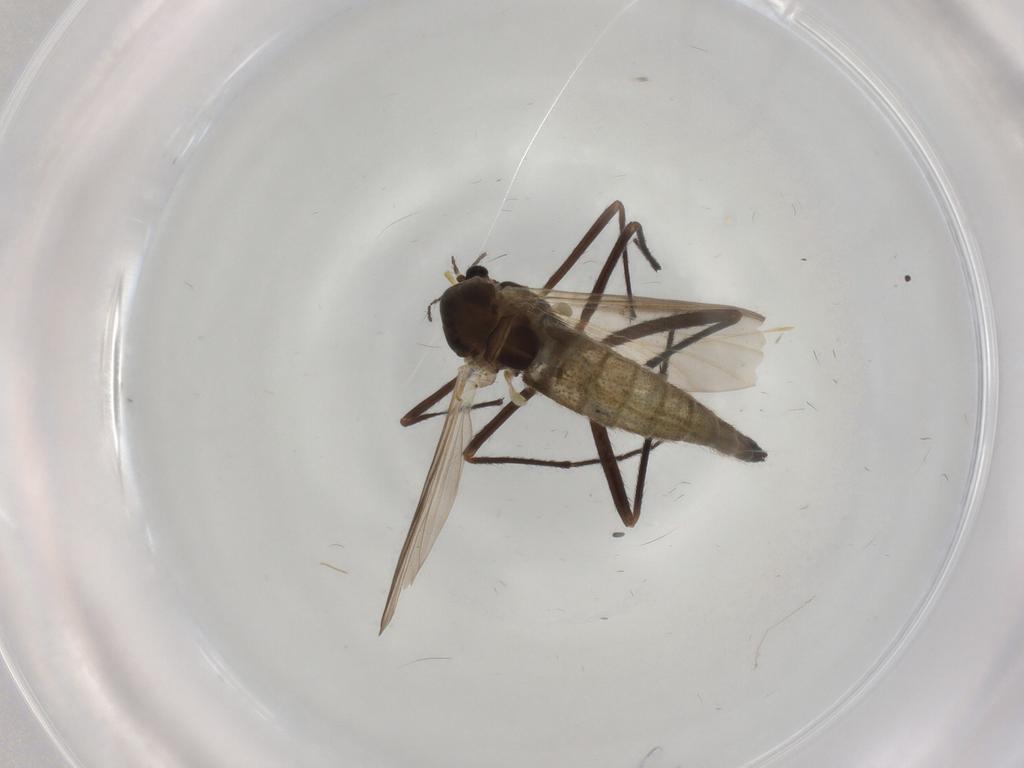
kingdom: Animalia
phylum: Arthropoda
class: Insecta
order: Diptera
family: Chironomidae
